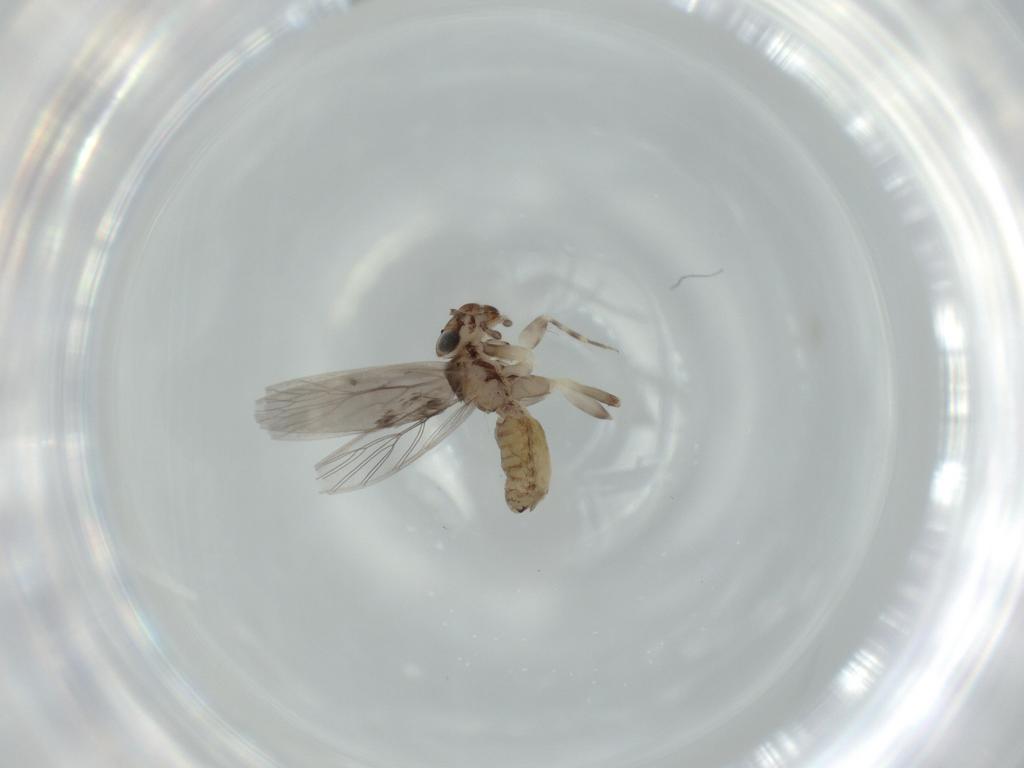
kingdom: Animalia
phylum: Arthropoda
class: Insecta
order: Psocodea
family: Lepidopsocidae
